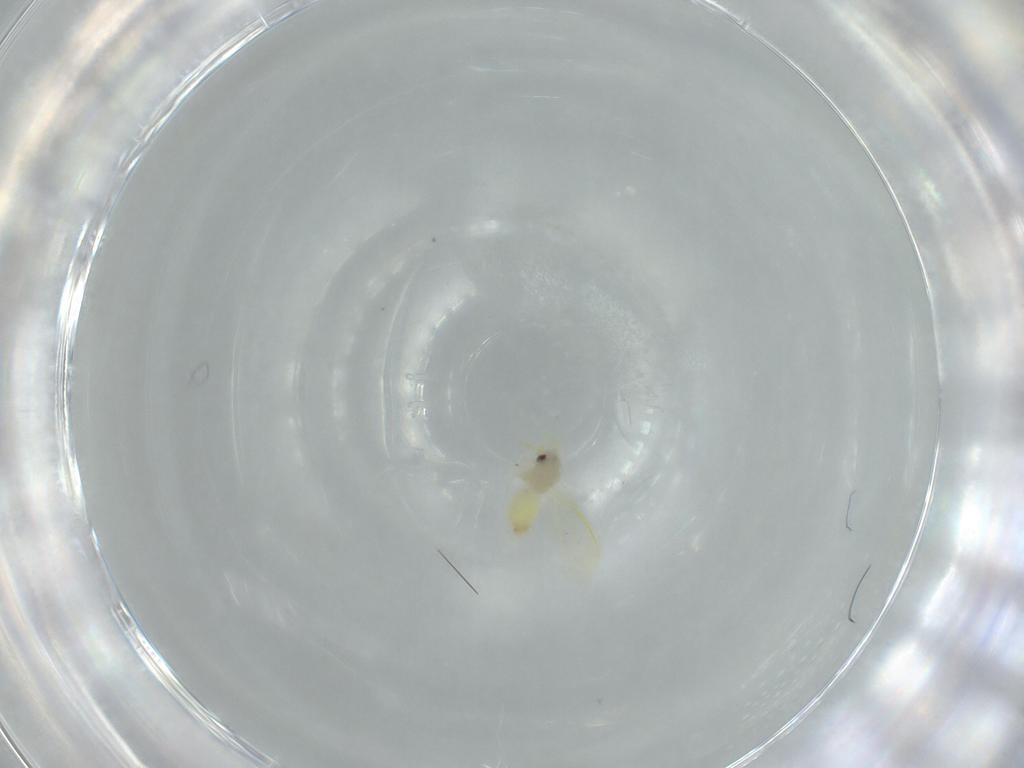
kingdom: Animalia
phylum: Arthropoda
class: Insecta
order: Hemiptera
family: Aleyrodidae
